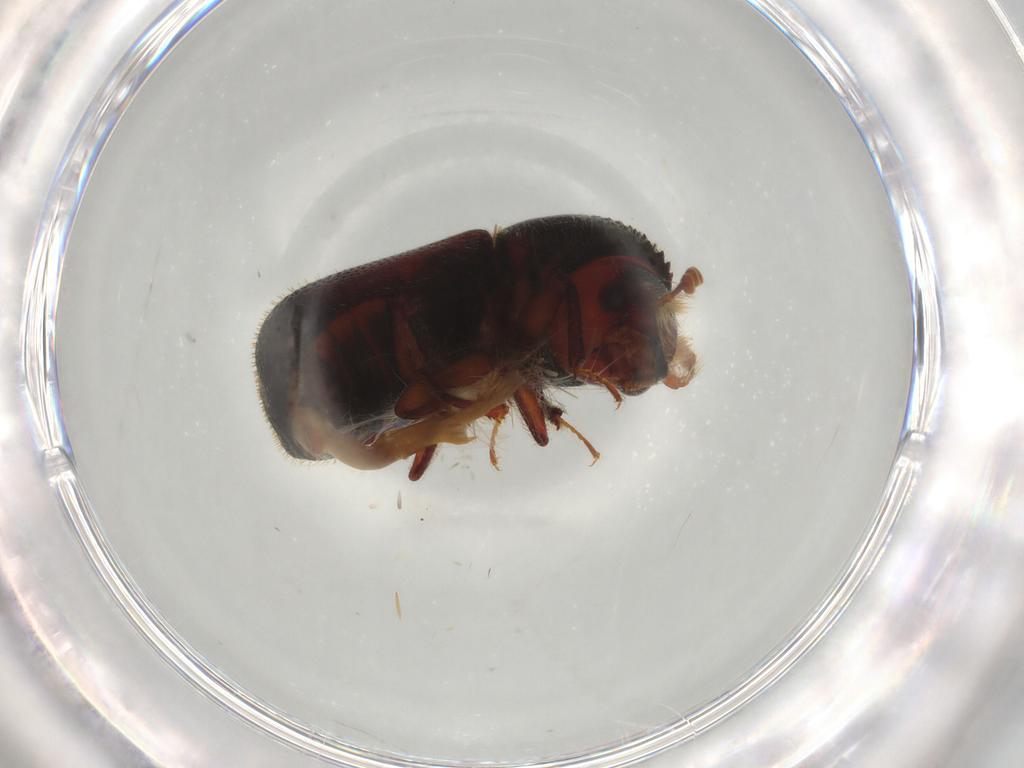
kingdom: Animalia
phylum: Arthropoda
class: Insecta
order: Coleoptera
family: Bostrichidae
